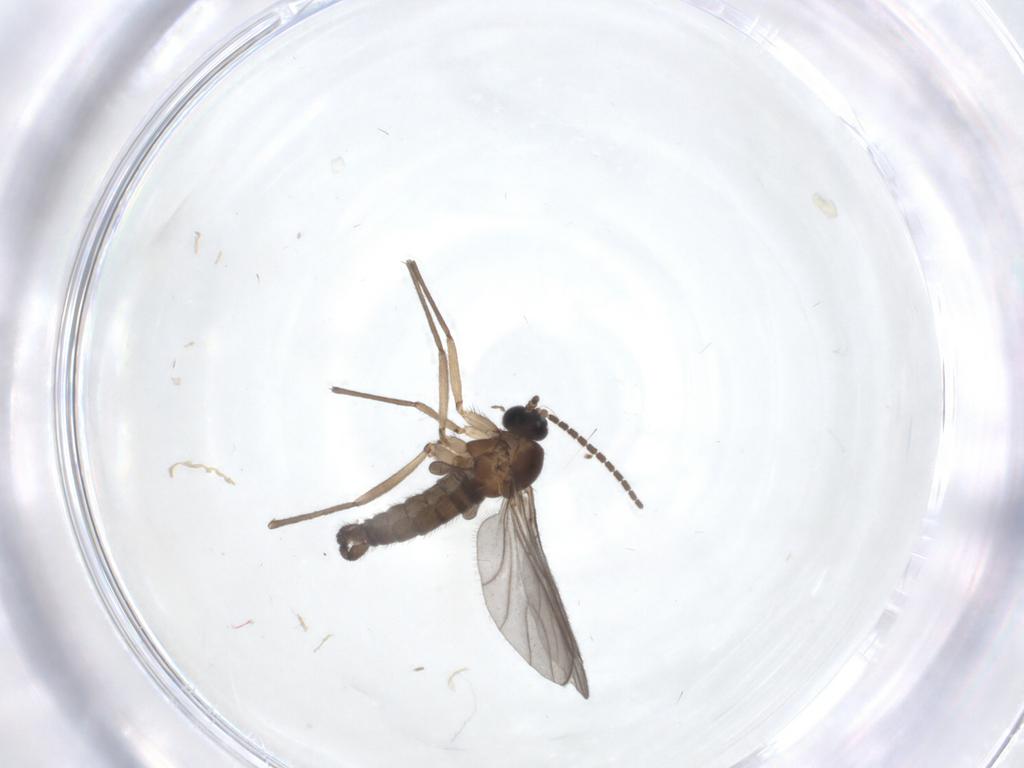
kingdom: Animalia
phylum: Arthropoda
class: Insecta
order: Diptera
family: Sciaridae
